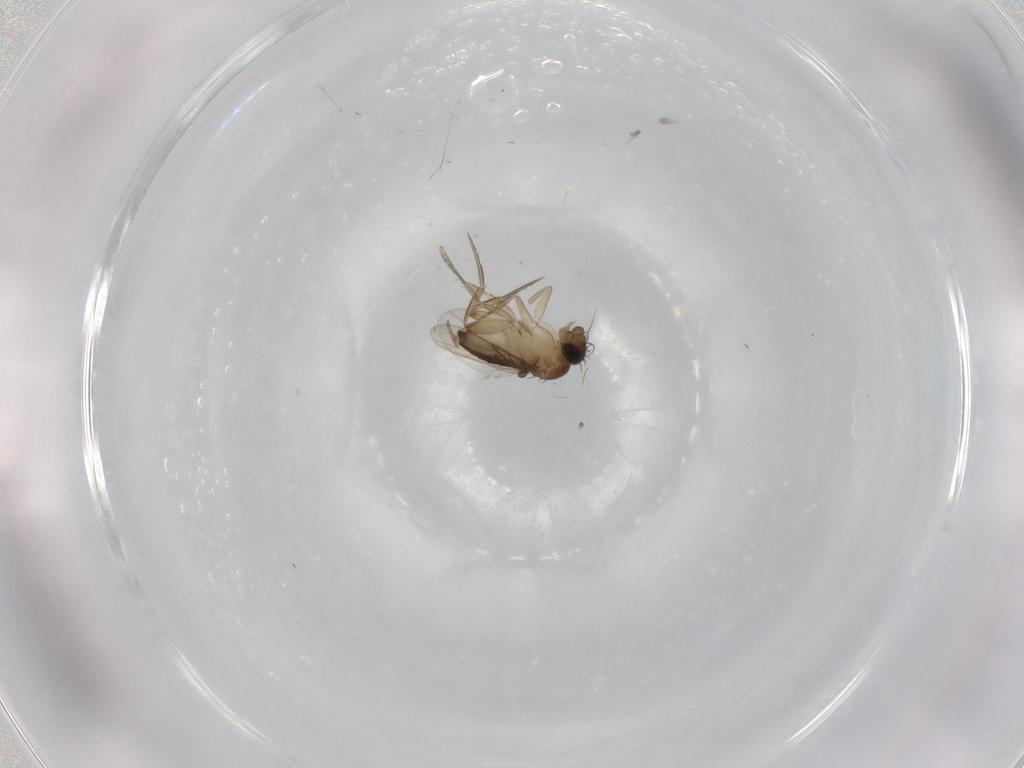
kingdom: Animalia
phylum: Arthropoda
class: Insecta
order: Diptera
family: Phoridae
